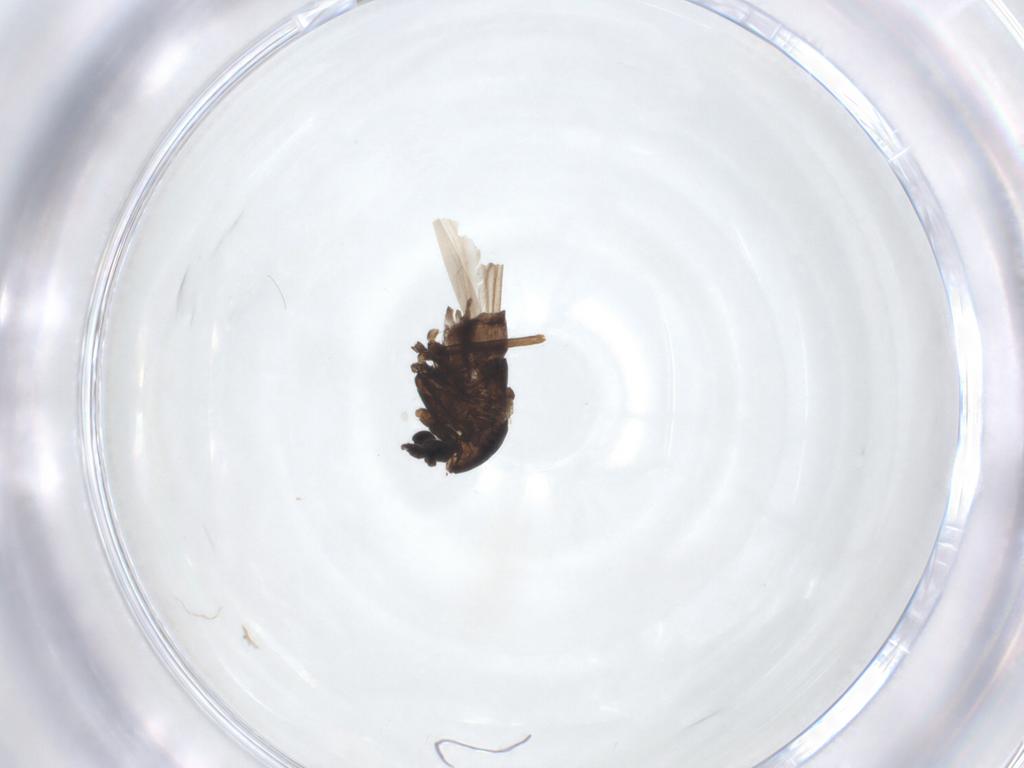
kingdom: Animalia
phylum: Arthropoda
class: Insecta
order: Diptera
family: Chironomidae
